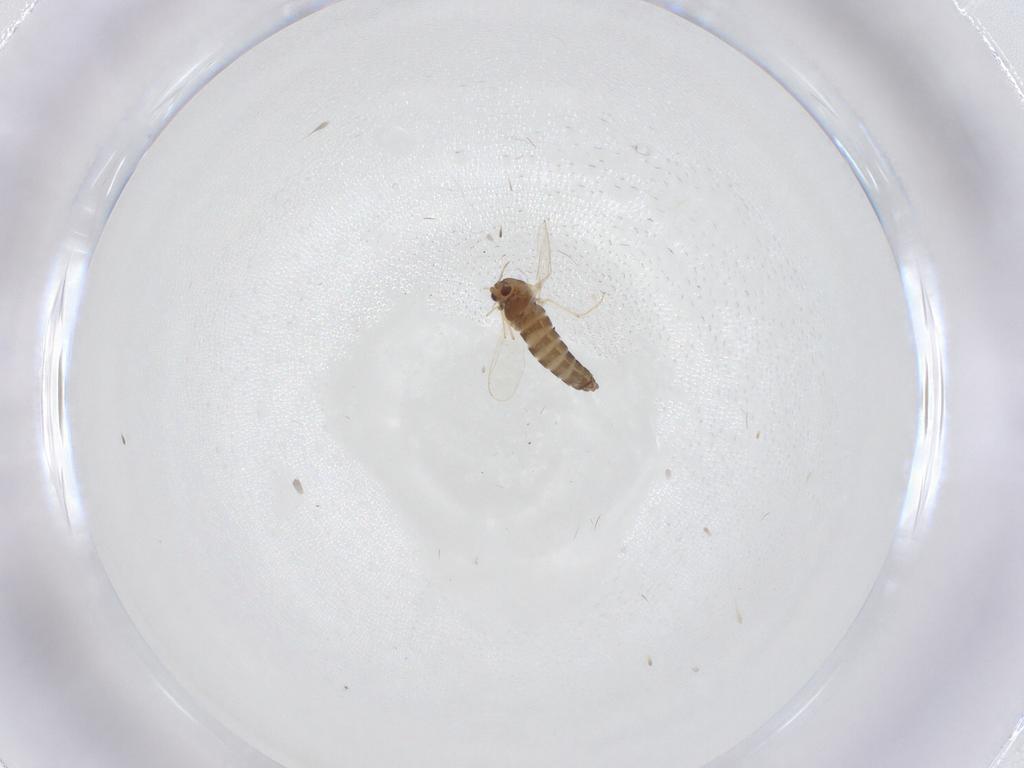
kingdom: Animalia
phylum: Arthropoda
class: Insecta
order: Diptera
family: Chironomidae
